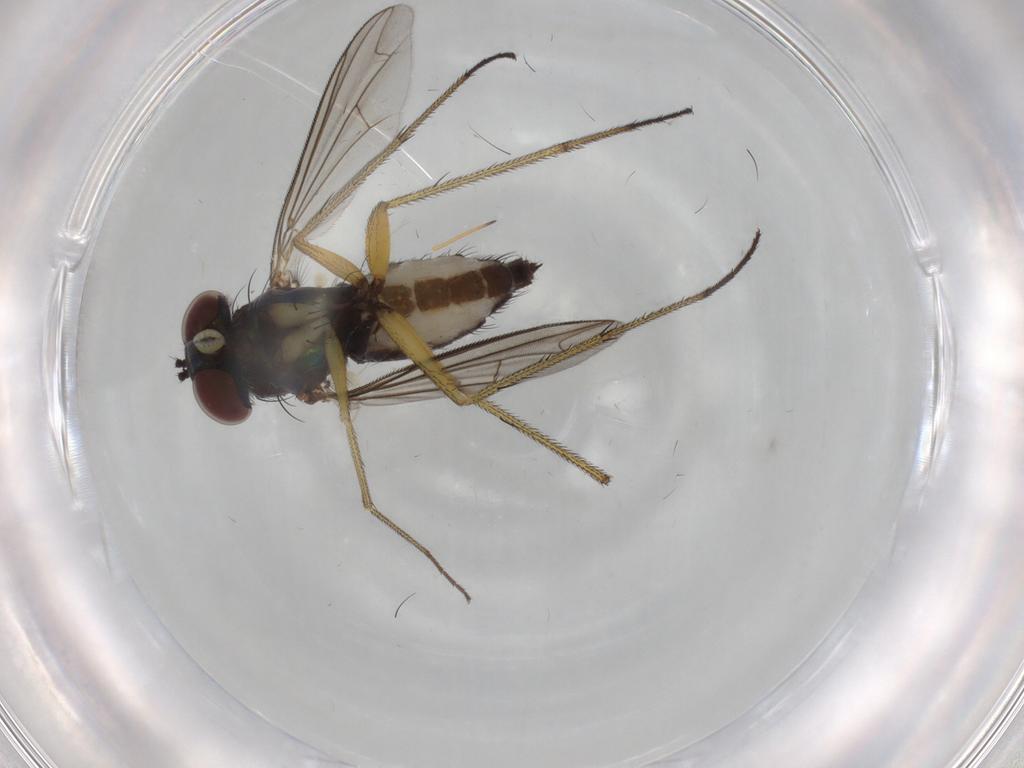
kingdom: Animalia
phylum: Arthropoda
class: Insecta
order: Diptera
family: Dolichopodidae
